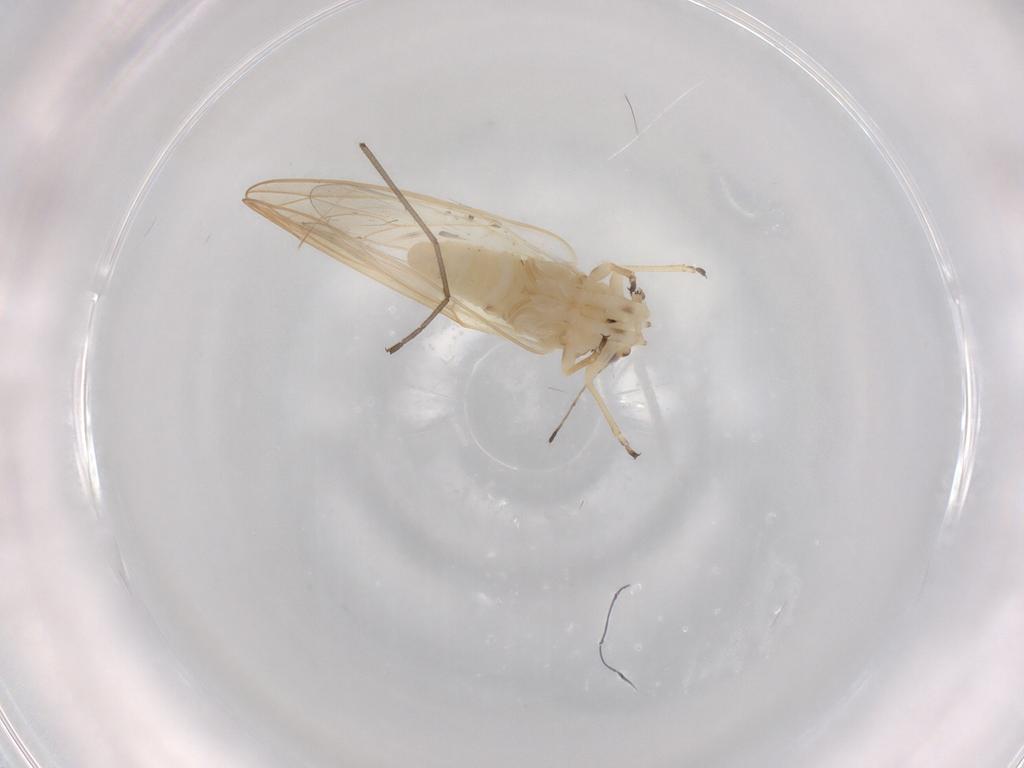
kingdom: Animalia
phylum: Arthropoda
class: Insecta
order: Hemiptera
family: Triozidae
